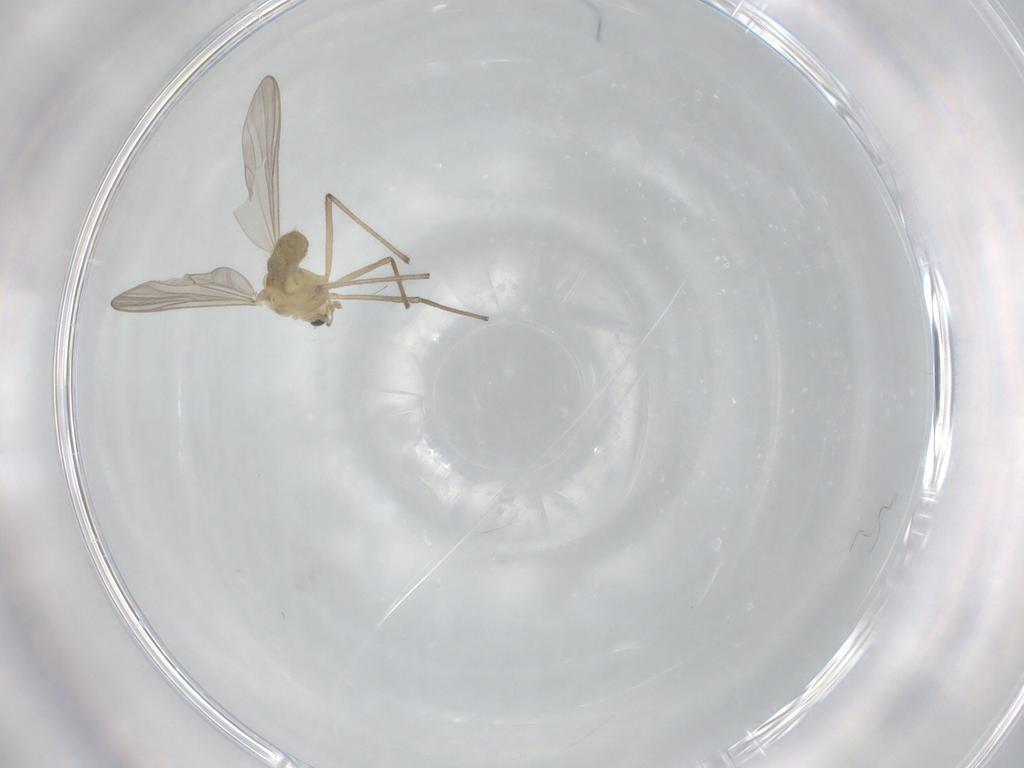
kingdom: Animalia
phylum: Arthropoda
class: Insecta
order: Diptera
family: Chironomidae
